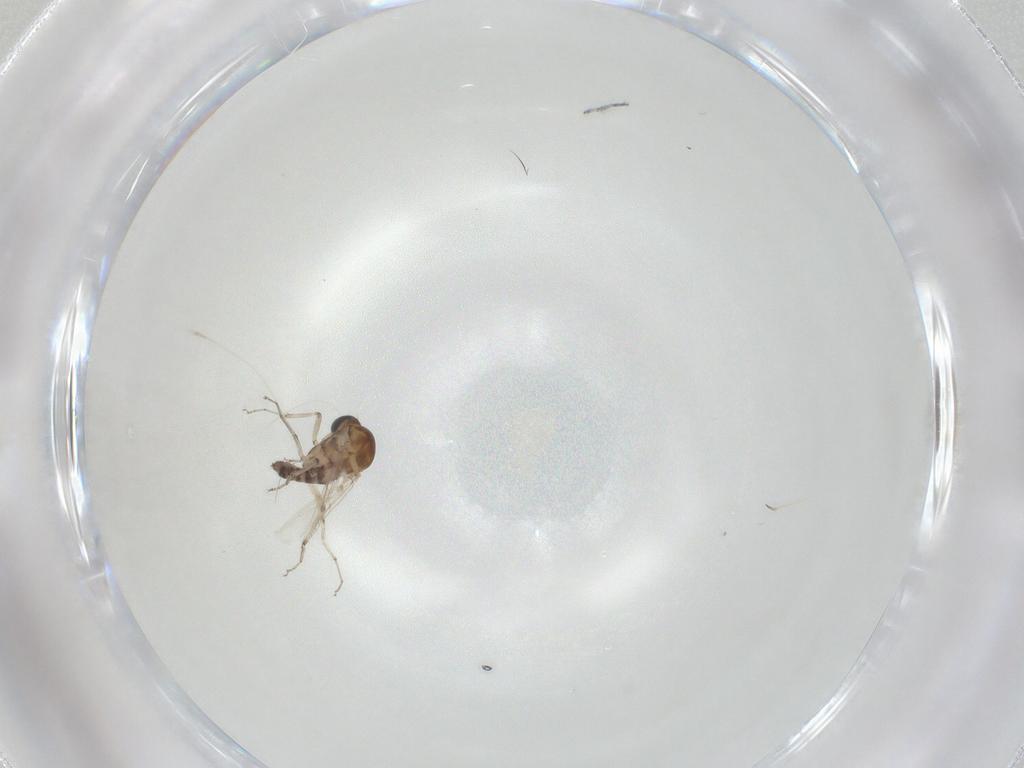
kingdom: Animalia
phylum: Arthropoda
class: Insecta
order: Diptera
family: Ceratopogonidae
